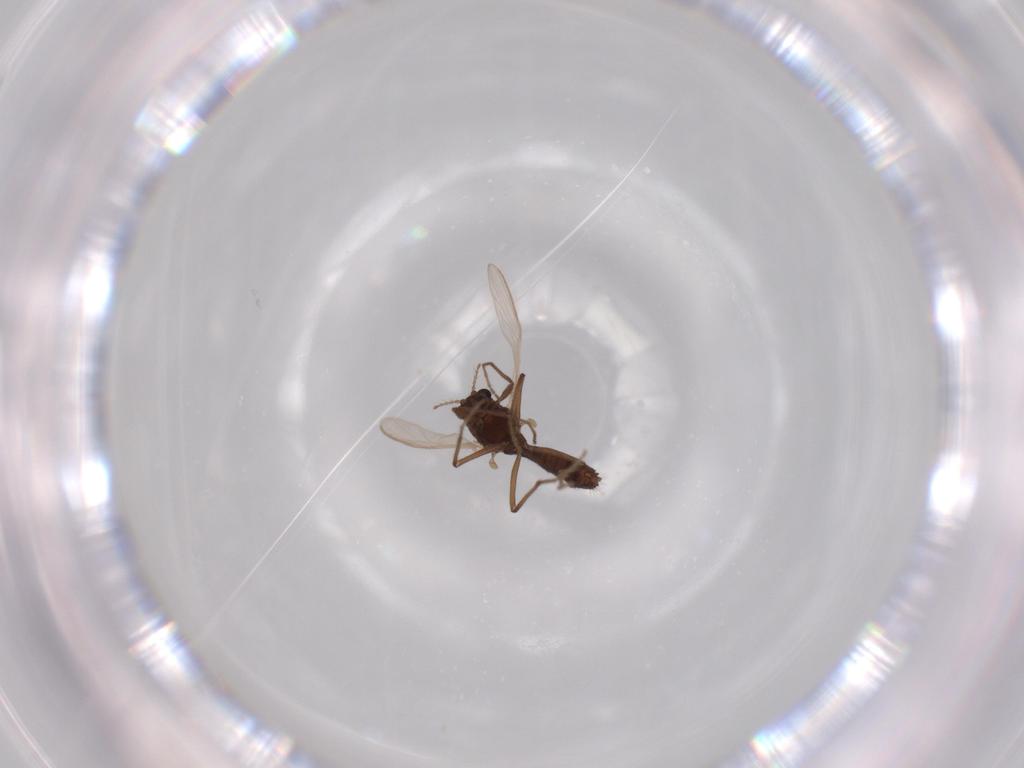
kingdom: Animalia
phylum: Arthropoda
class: Insecta
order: Diptera
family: Chironomidae
